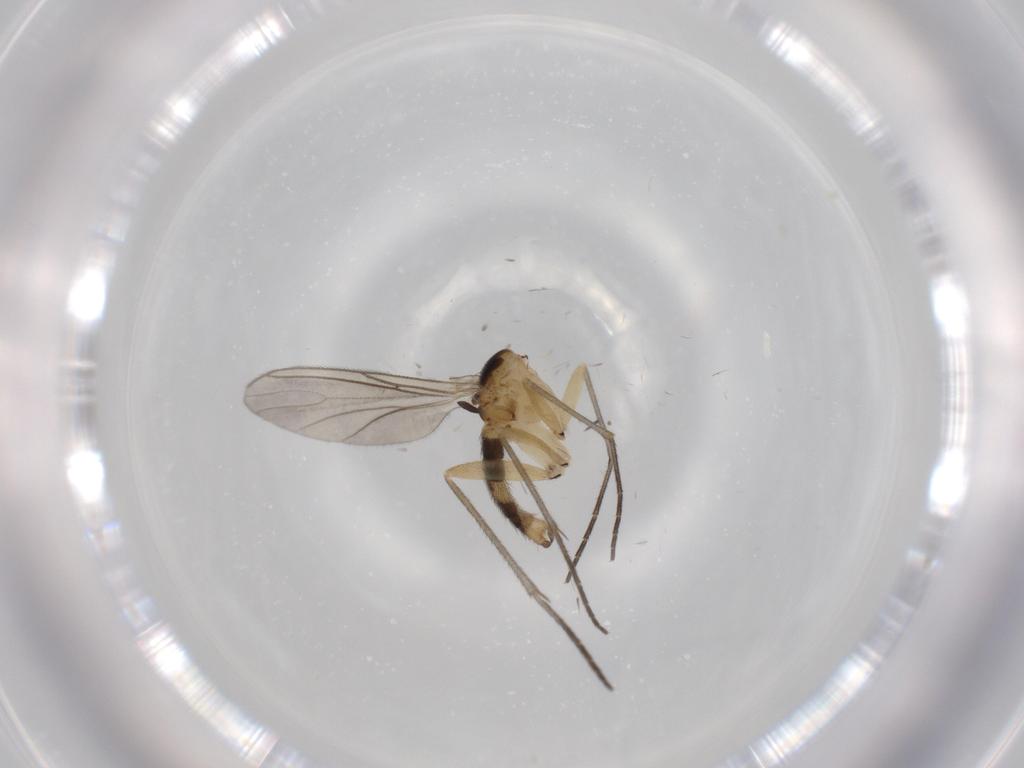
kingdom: Animalia
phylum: Arthropoda
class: Insecta
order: Diptera
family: Sciaridae
